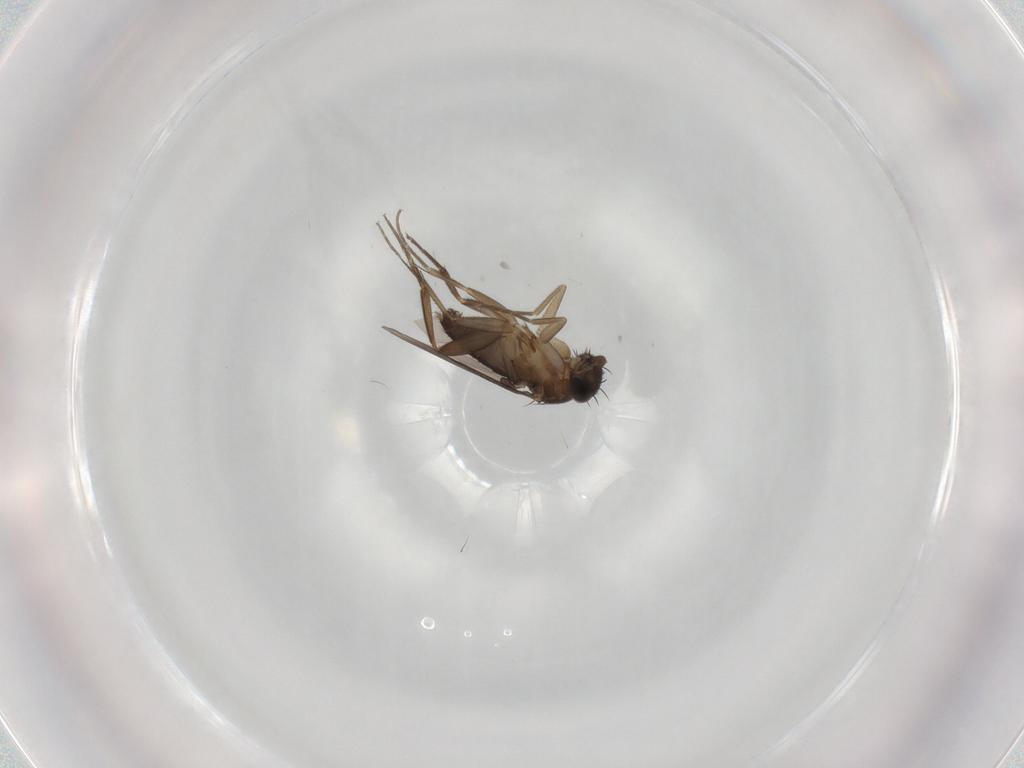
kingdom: Animalia
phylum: Arthropoda
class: Insecta
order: Diptera
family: Phoridae
